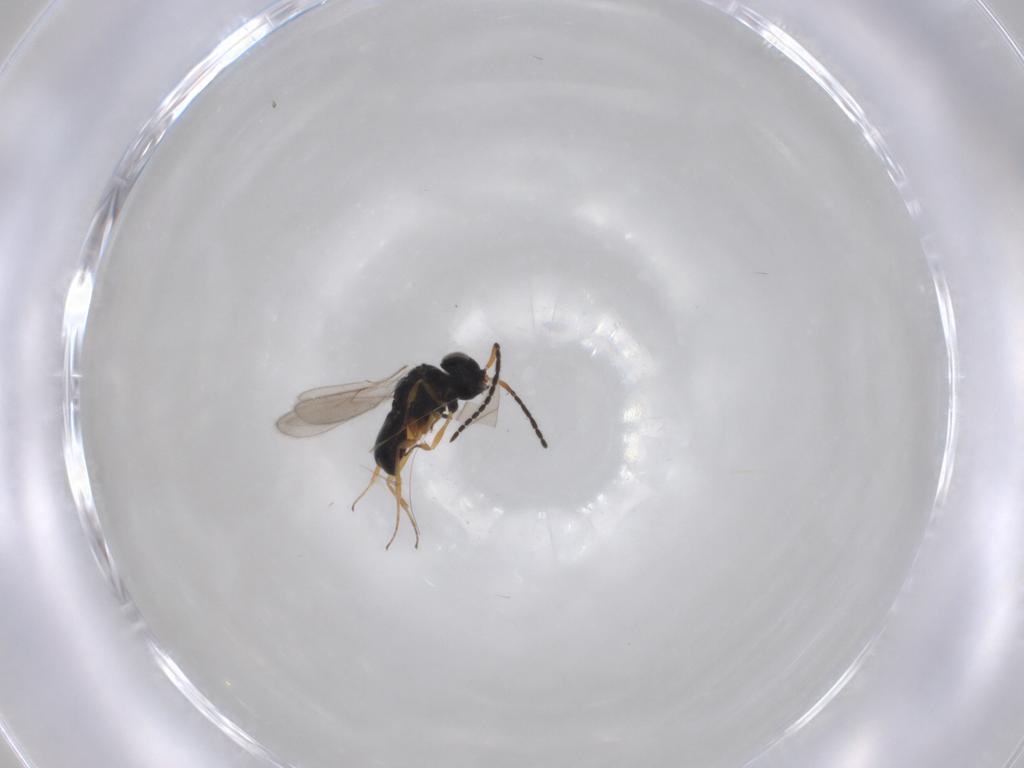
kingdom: Animalia
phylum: Arthropoda
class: Insecta
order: Hymenoptera
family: Scelionidae
